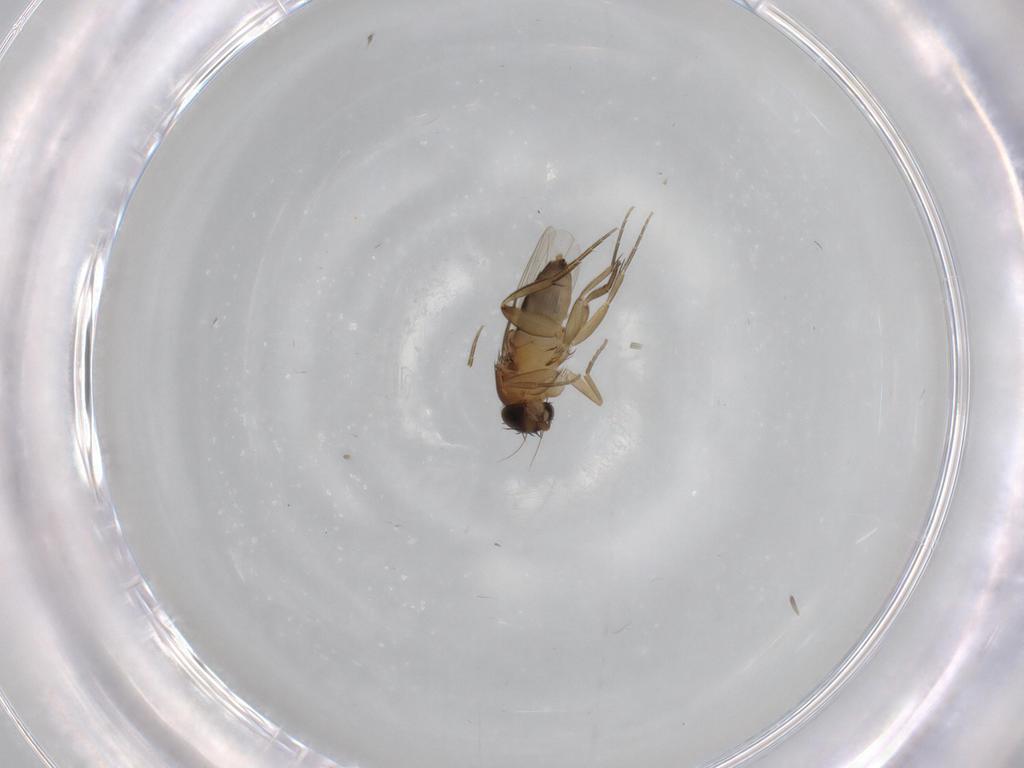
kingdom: Animalia
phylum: Arthropoda
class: Insecta
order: Diptera
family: Phoridae
